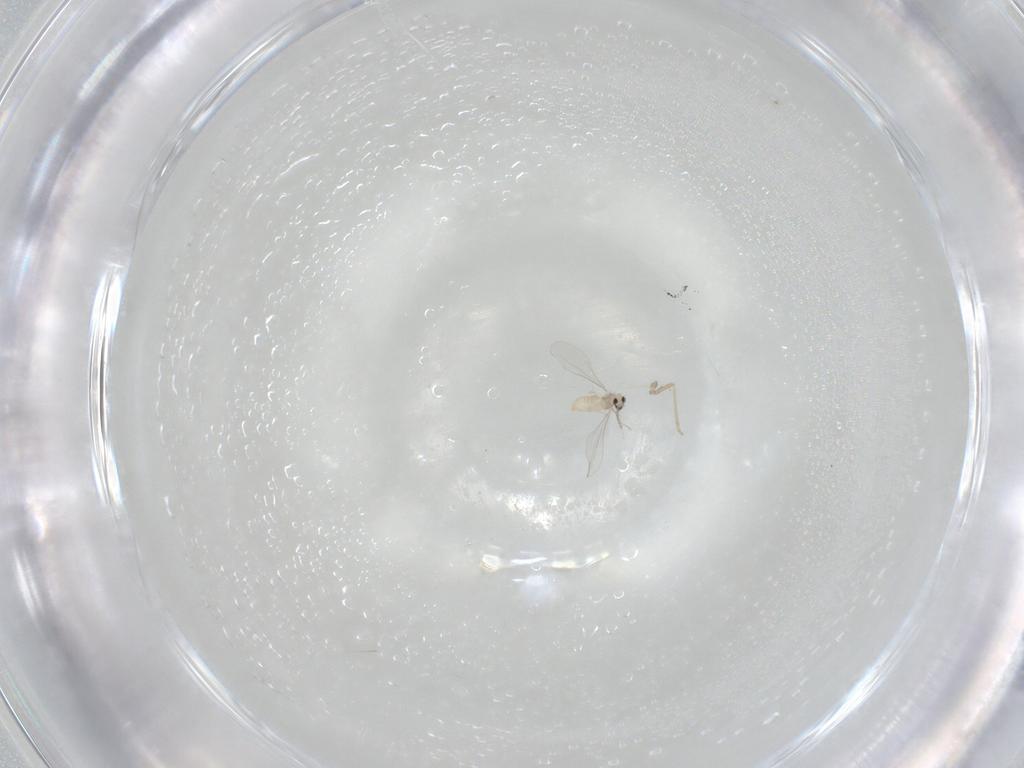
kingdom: Animalia
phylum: Arthropoda
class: Insecta
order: Diptera
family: Cecidomyiidae
